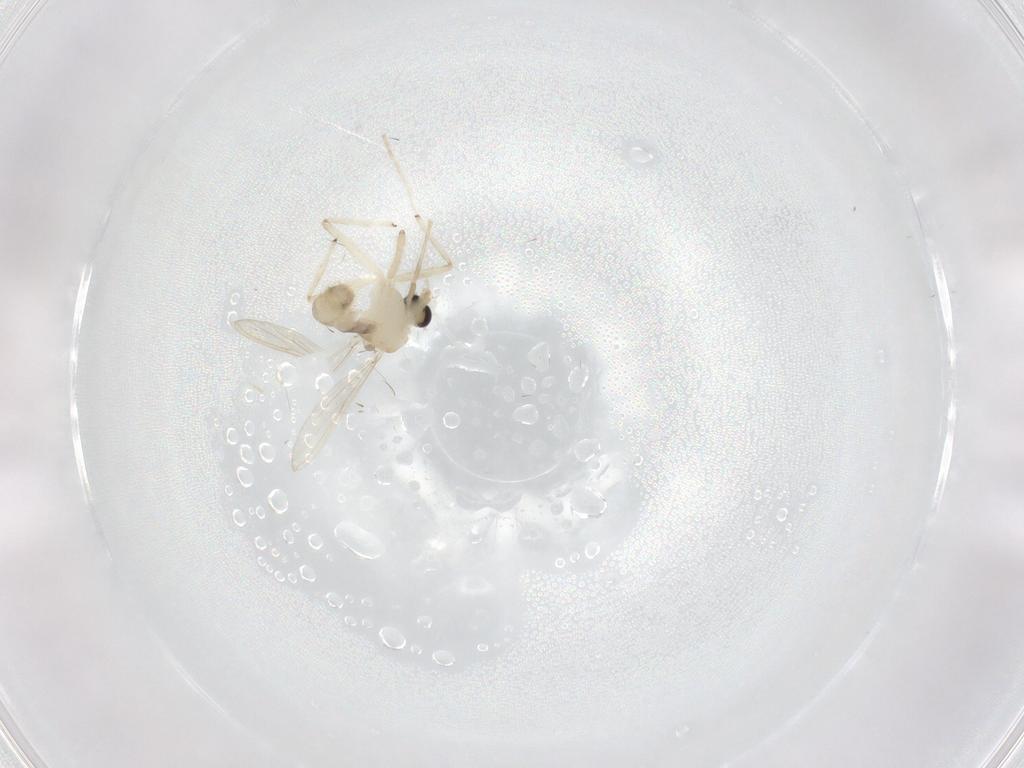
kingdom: Animalia
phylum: Arthropoda
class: Insecta
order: Diptera
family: Chironomidae
